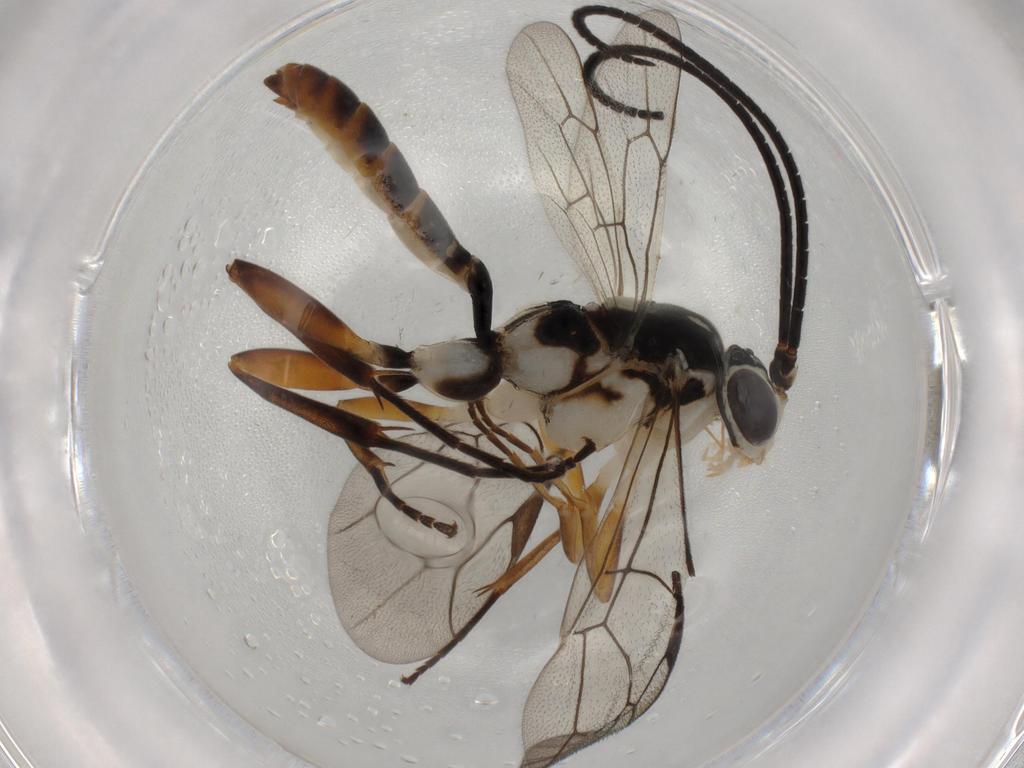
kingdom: Animalia
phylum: Arthropoda
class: Insecta
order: Hymenoptera
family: Braconidae
